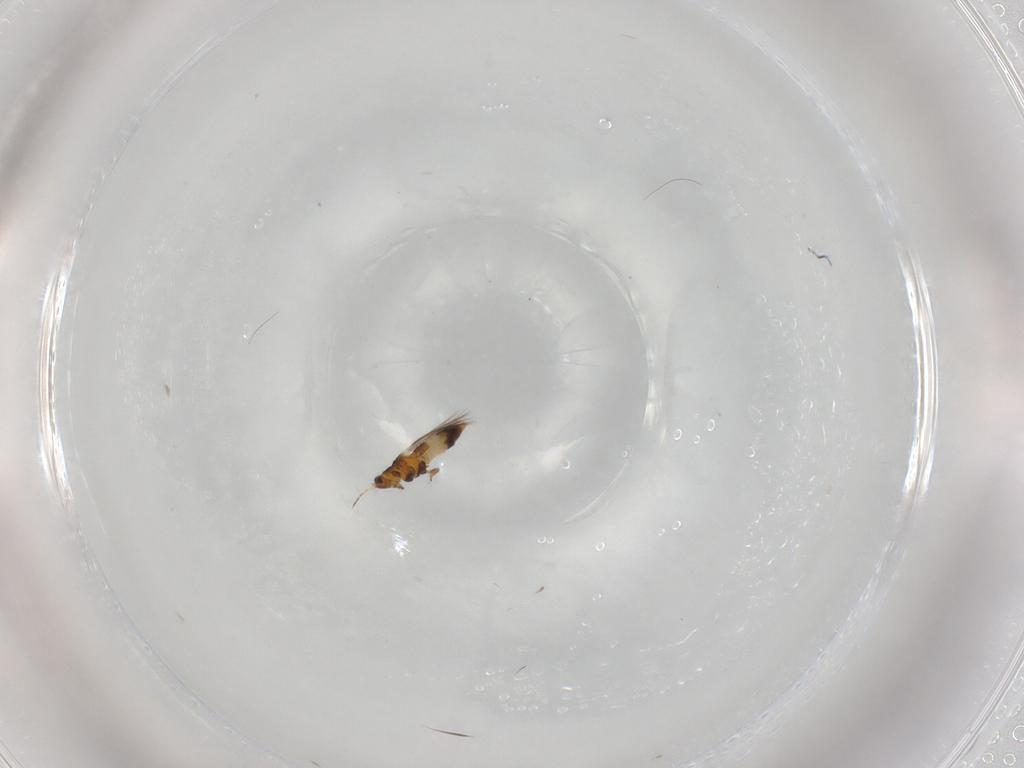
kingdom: Animalia
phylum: Arthropoda
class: Insecta
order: Thysanoptera
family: Thripidae
